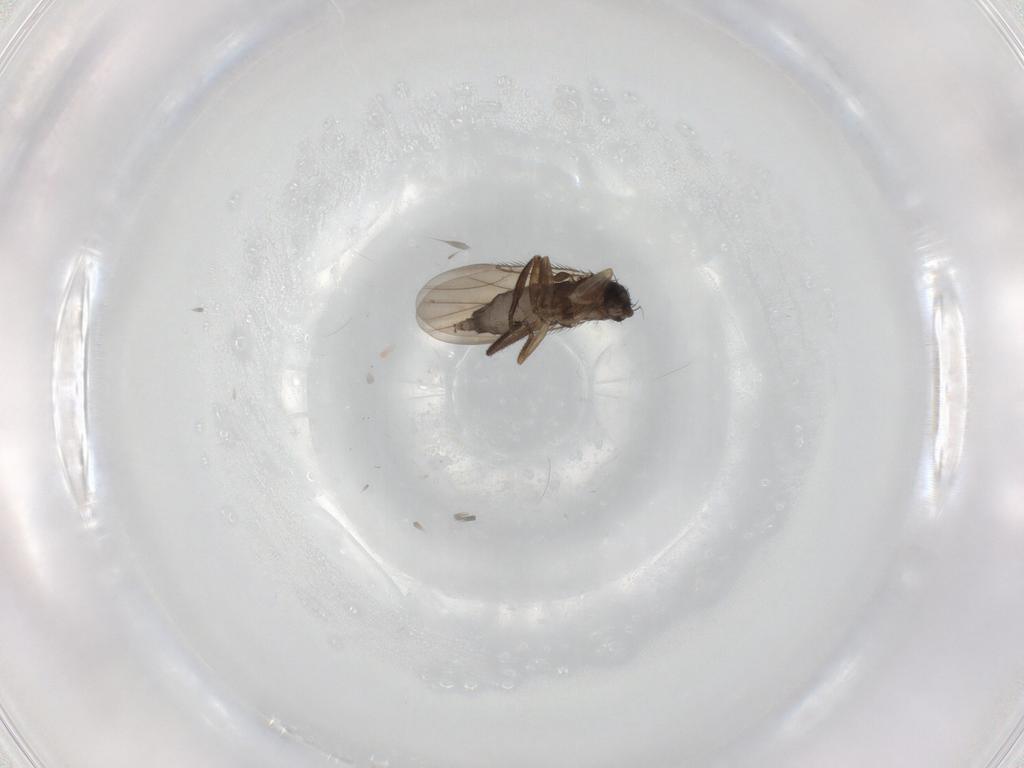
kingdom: Animalia
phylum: Arthropoda
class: Insecta
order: Diptera
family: Phoridae
